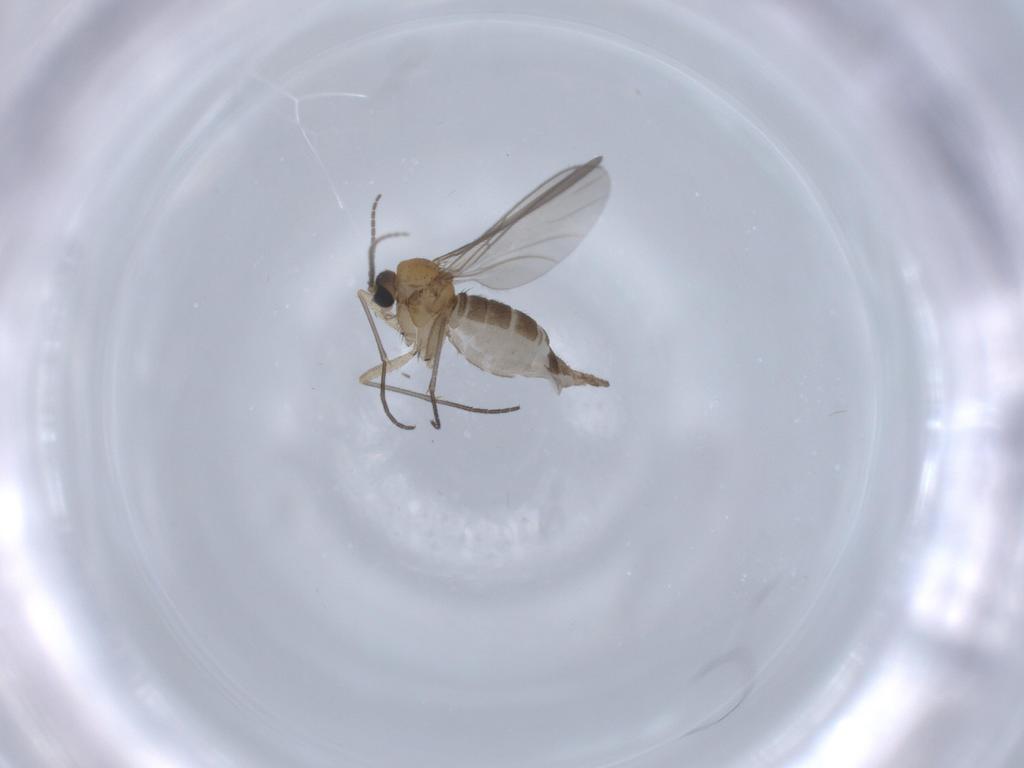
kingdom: Animalia
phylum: Arthropoda
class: Insecta
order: Diptera
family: Sciaridae
